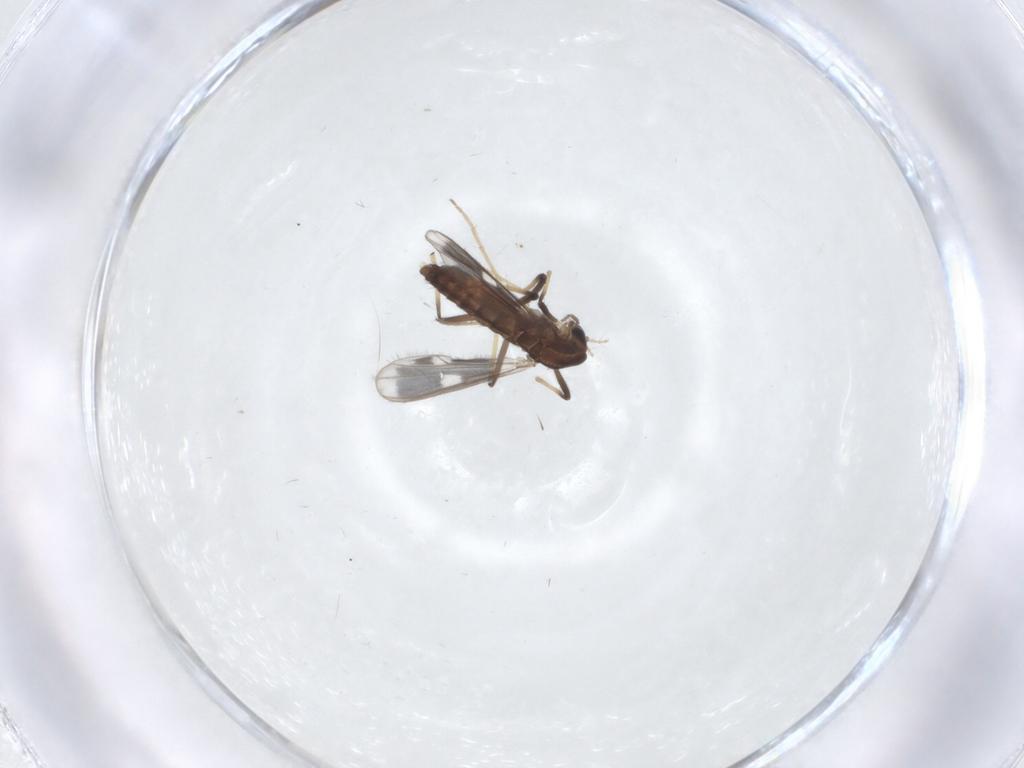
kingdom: Animalia
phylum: Arthropoda
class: Insecta
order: Diptera
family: Chironomidae
